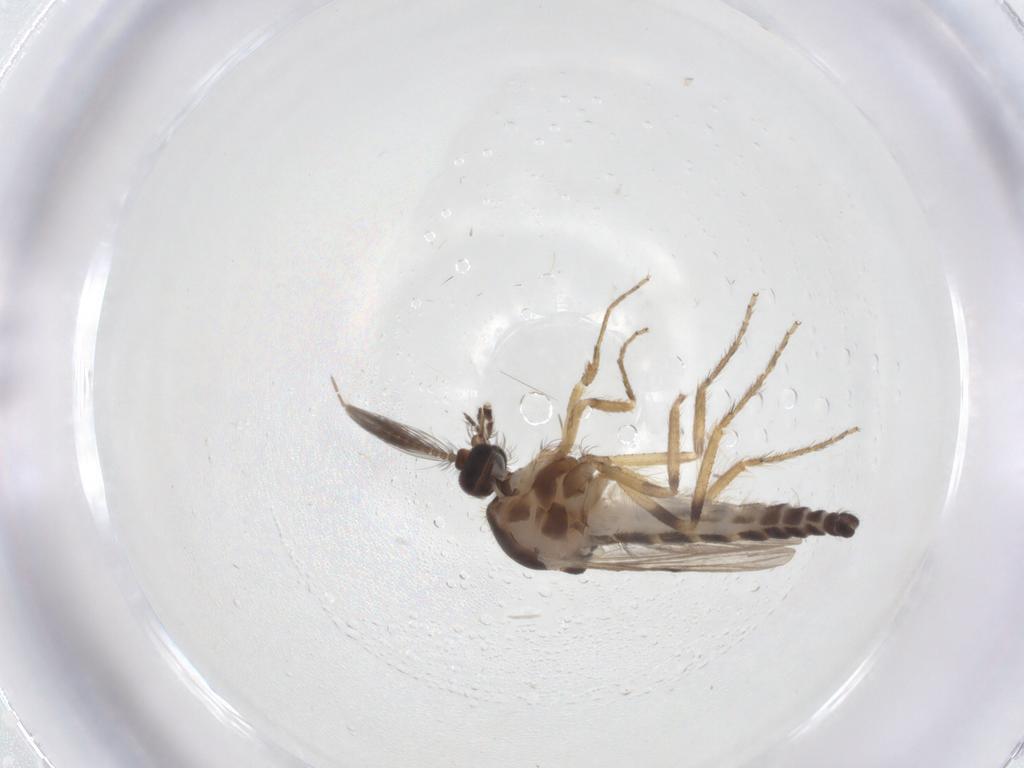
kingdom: Animalia
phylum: Arthropoda
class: Insecta
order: Diptera
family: Ceratopogonidae
